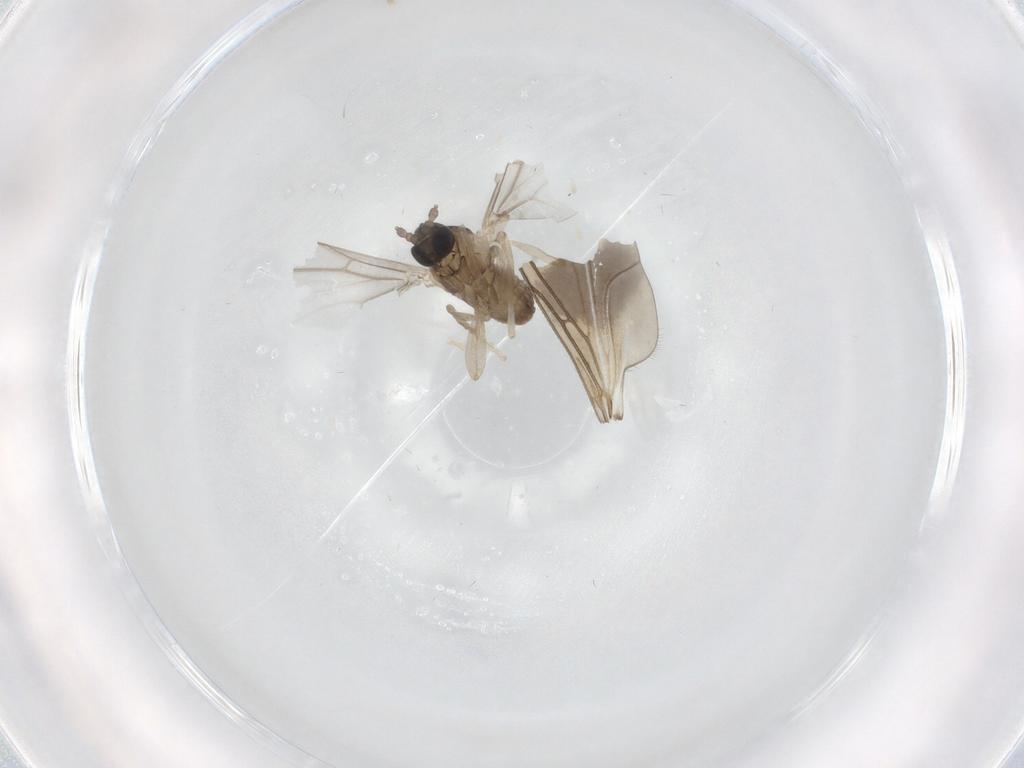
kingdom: Animalia
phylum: Arthropoda
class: Insecta
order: Diptera
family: Cecidomyiidae
